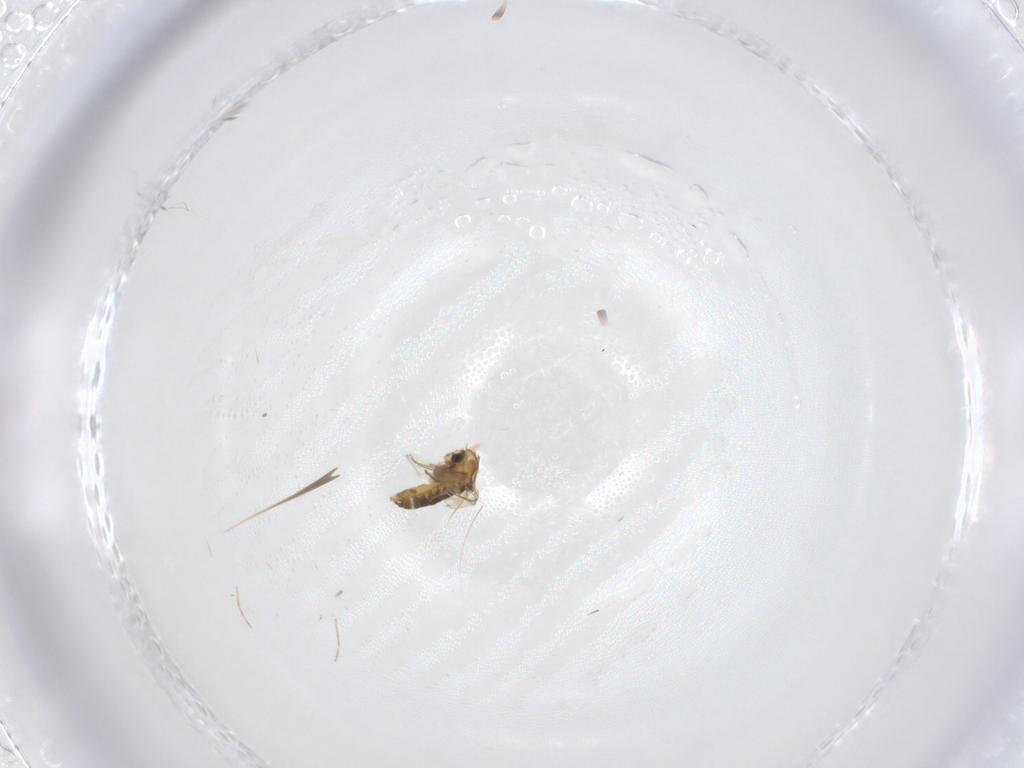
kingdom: Animalia
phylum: Arthropoda
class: Insecta
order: Diptera
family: Chironomidae
